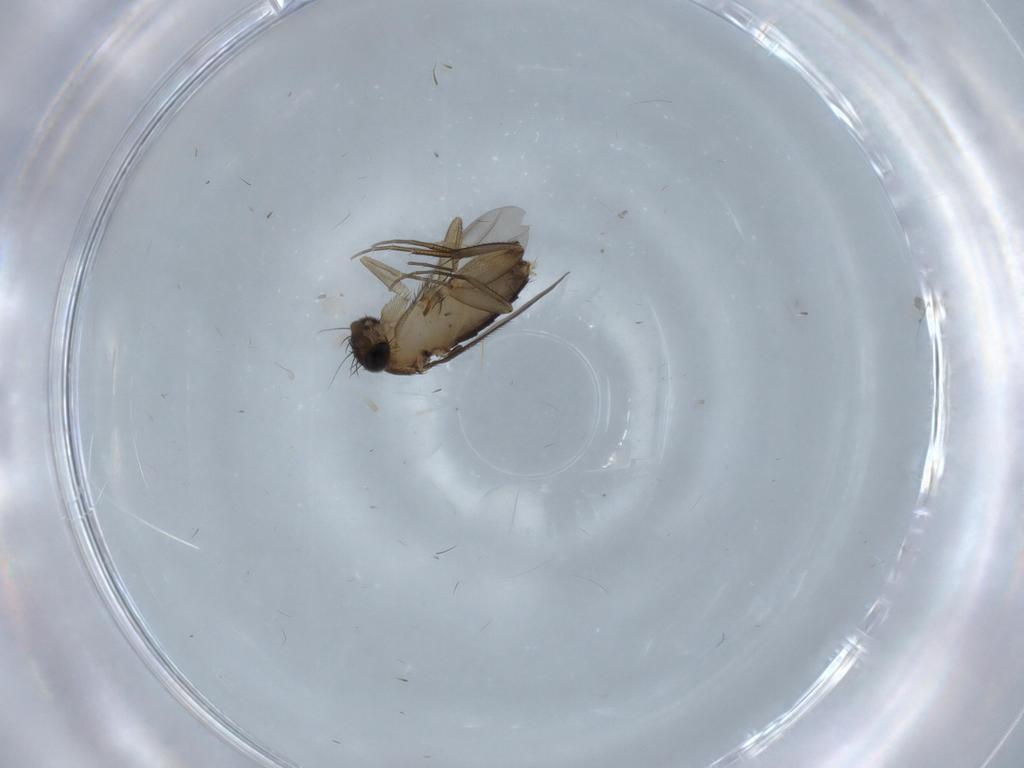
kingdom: Animalia
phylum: Arthropoda
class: Insecta
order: Diptera
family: Phoridae
